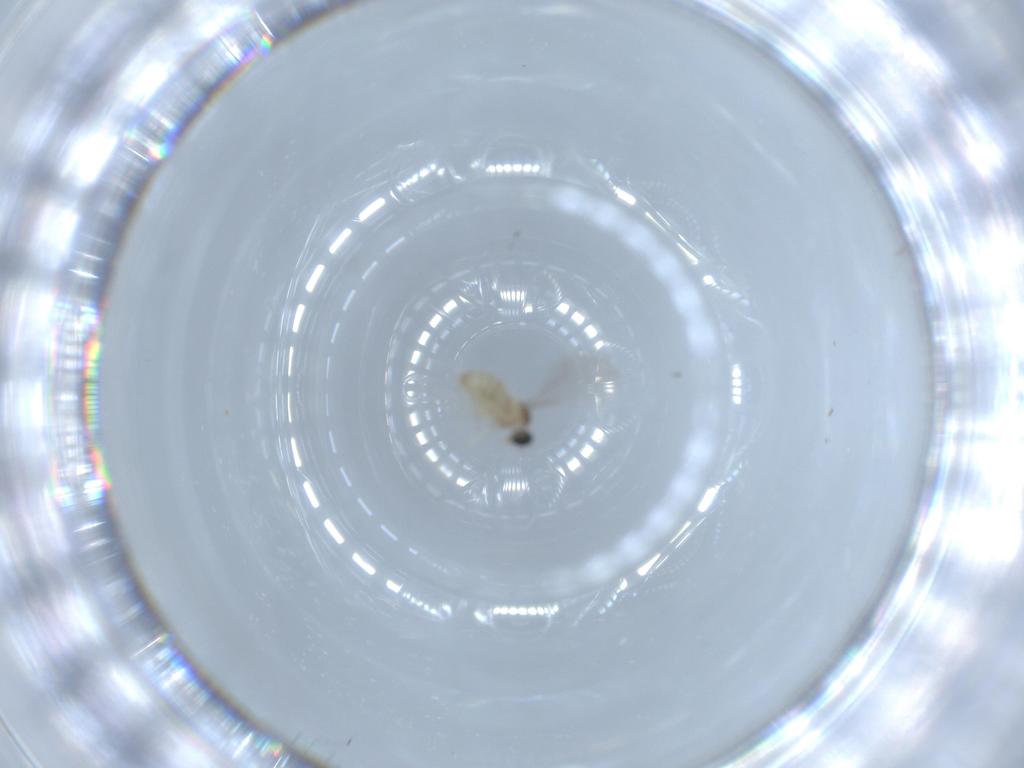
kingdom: Animalia
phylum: Arthropoda
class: Insecta
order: Diptera
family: Cecidomyiidae
